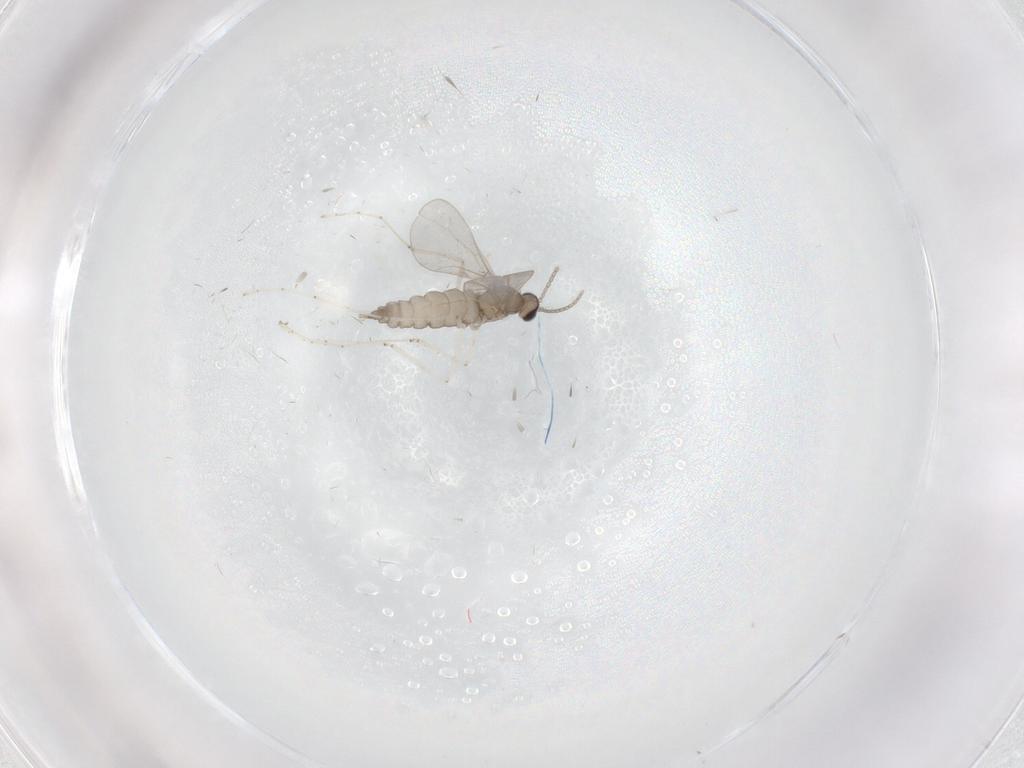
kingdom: Animalia
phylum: Arthropoda
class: Insecta
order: Diptera
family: Cecidomyiidae
